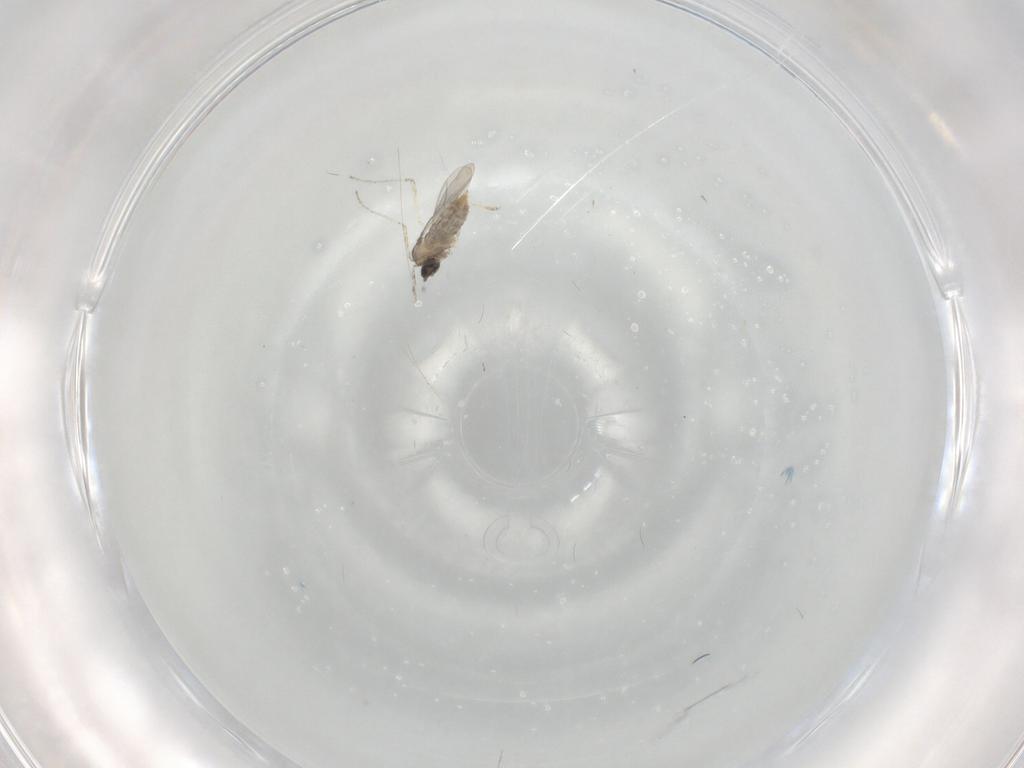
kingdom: Animalia
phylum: Arthropoda
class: Insecta
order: Diptera
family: Cecidomyiidae
